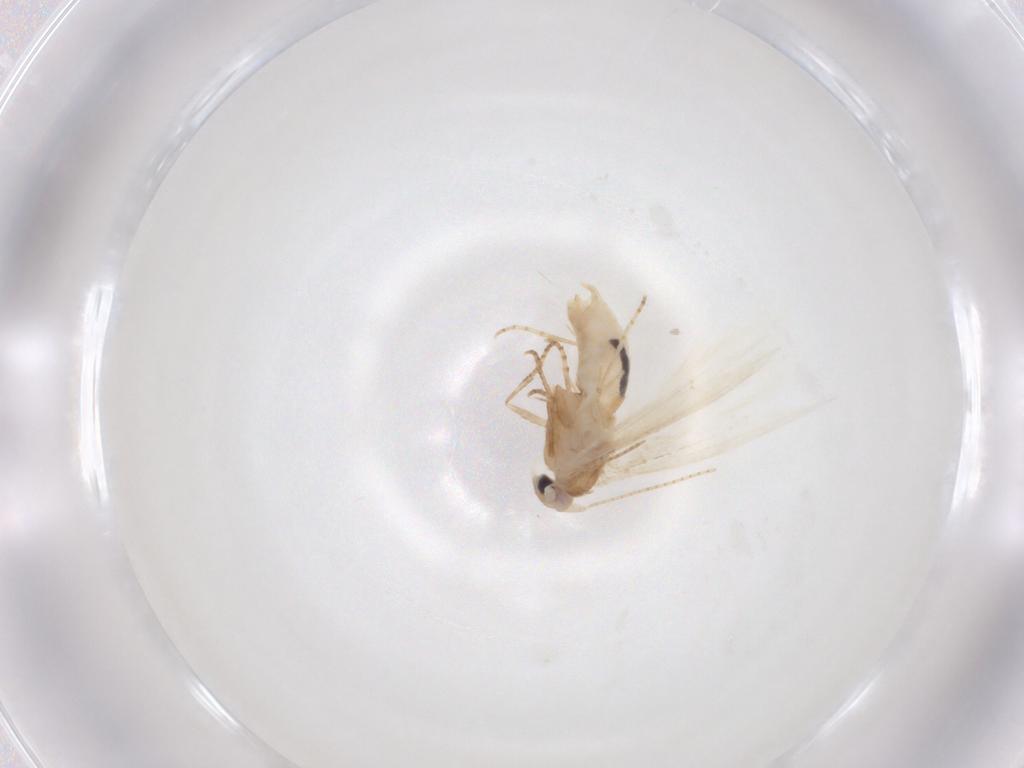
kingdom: Animalia
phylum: Arthropoda
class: Insecta
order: Lepidoptera
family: Bucculatricidae
